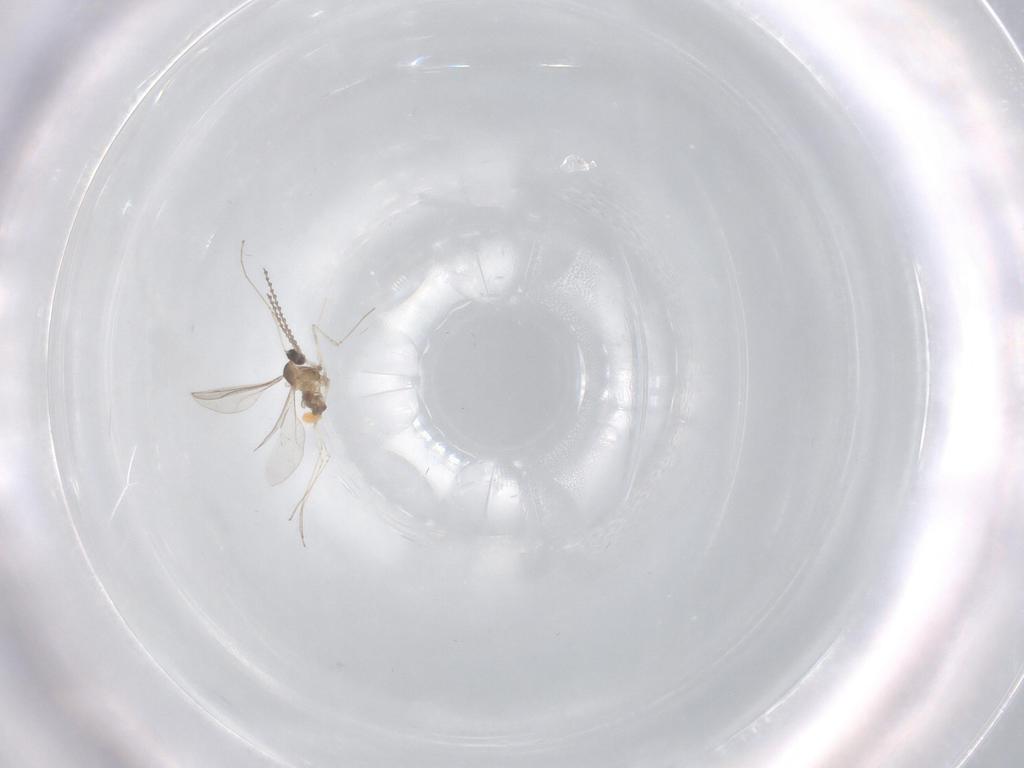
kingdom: Animalia
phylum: Arthropoda
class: Insecta
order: Diptera
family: Cecidomyiidae
